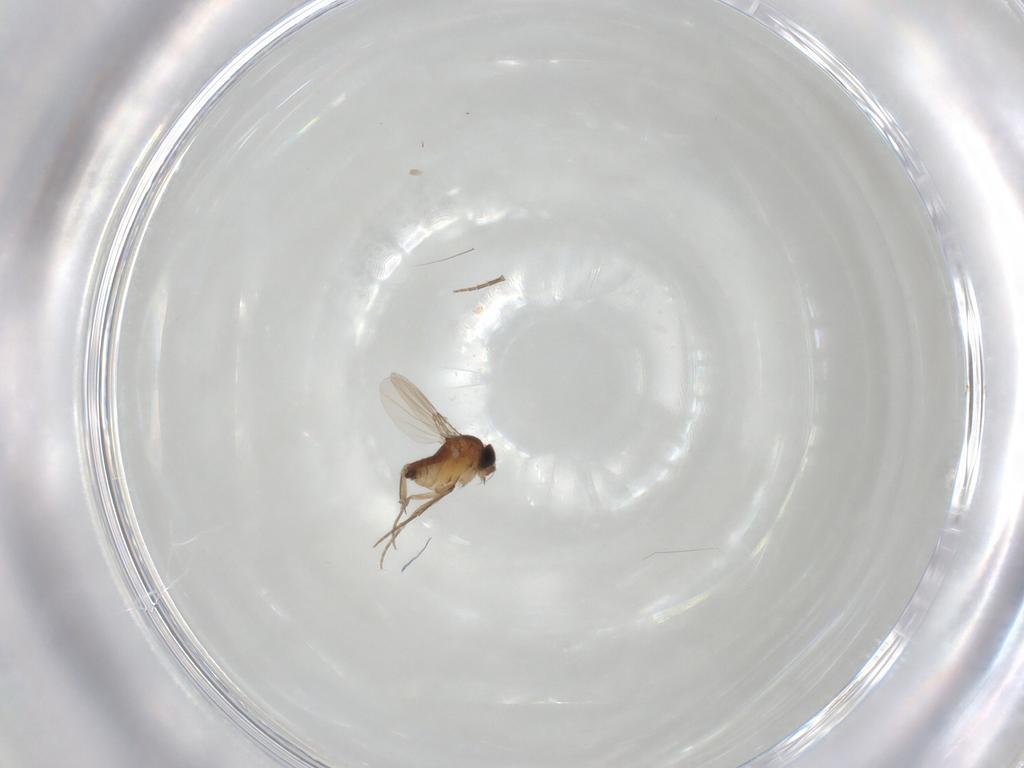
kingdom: Animalia
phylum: Arthropoda
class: Insecta
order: Diptera
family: Phoridae
